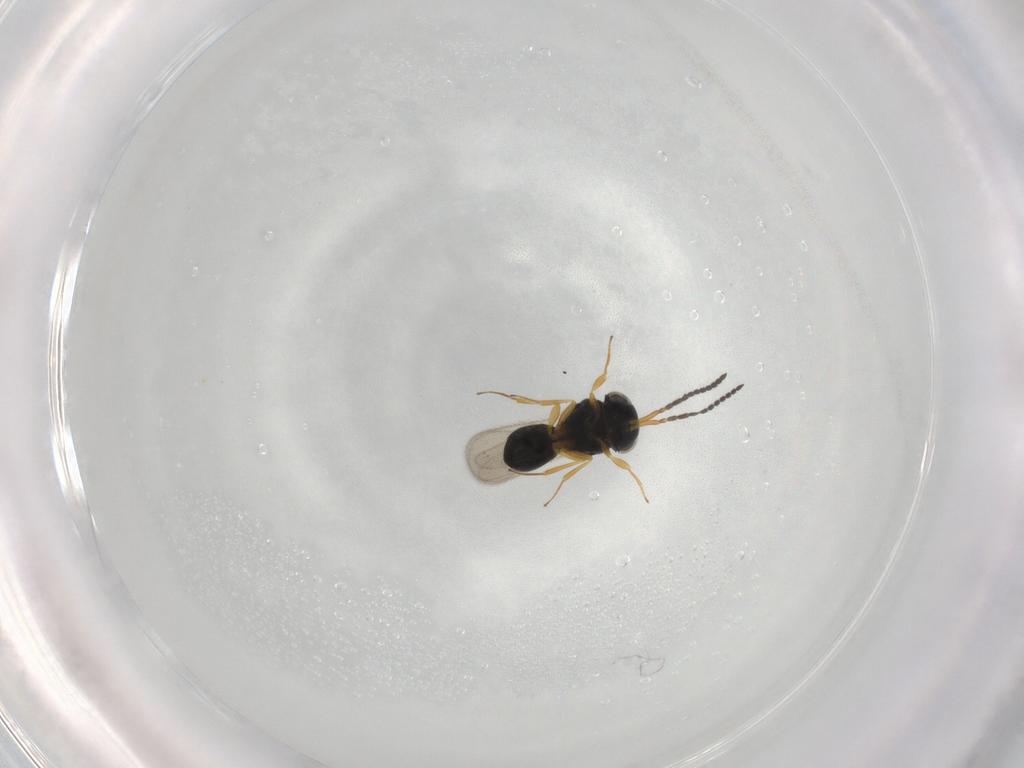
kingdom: Animalia
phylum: Arthropoda
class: Insecta
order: Hymenoptera
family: Scelionidae
